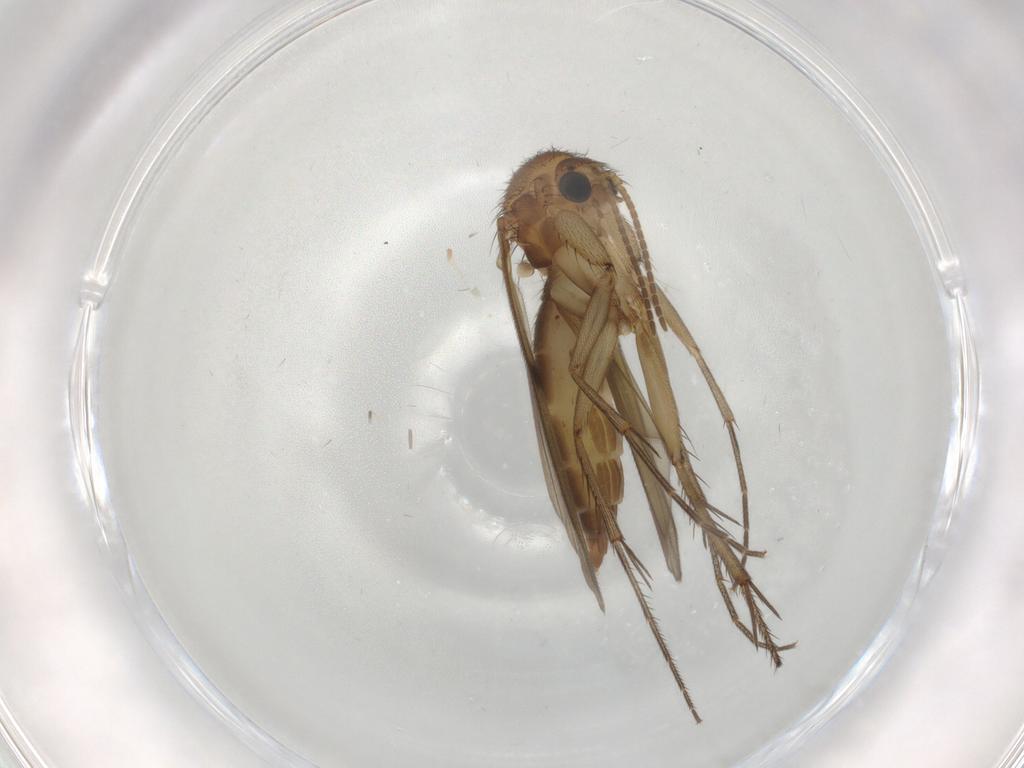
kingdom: Animalia
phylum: Arthropoda
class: Insecta
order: Diptera
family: Mycetophilidae
